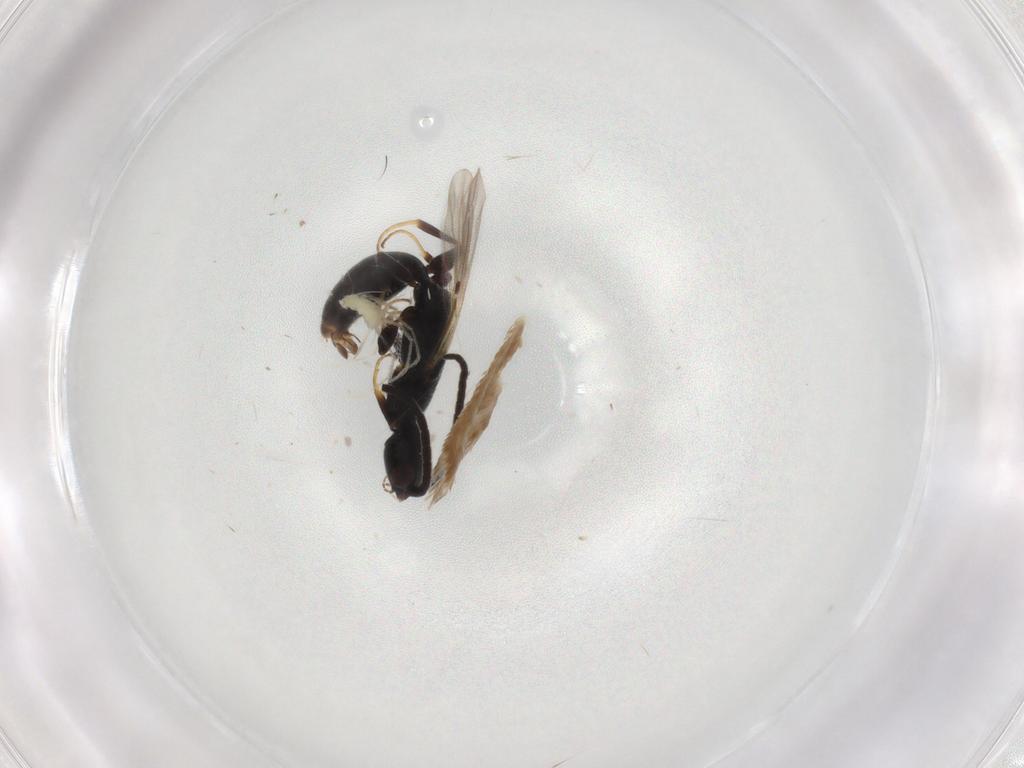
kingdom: Animalia
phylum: Arthropoda
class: Insecta
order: Hymenoptera
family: Bethylidae
